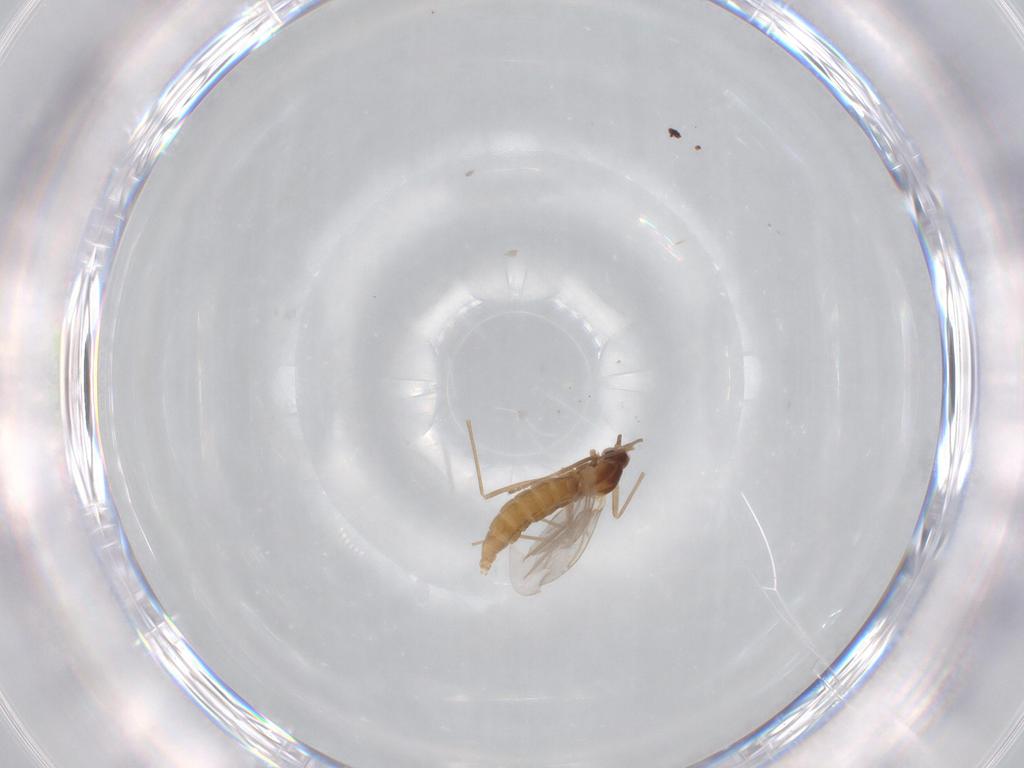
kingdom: Animalia
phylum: Arthropoda
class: Insecta
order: Diptera
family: Cecidomyiidae
